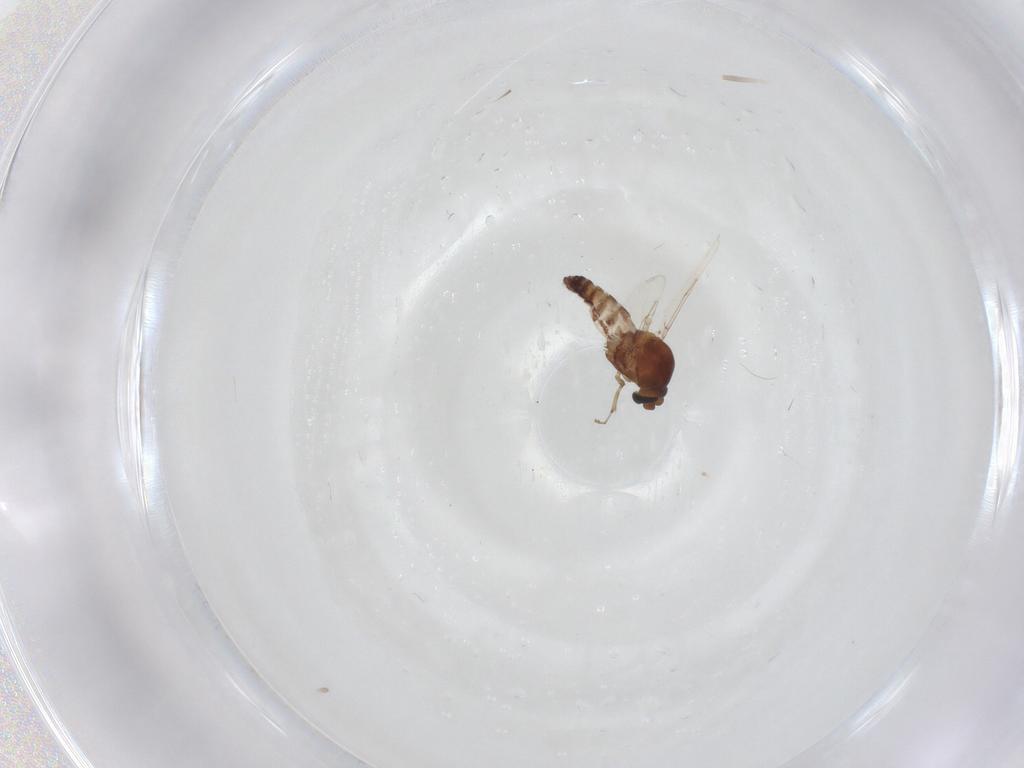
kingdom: Animalia
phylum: Arthropoda
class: Insecta
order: Diptera
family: Ceratopogonidae
